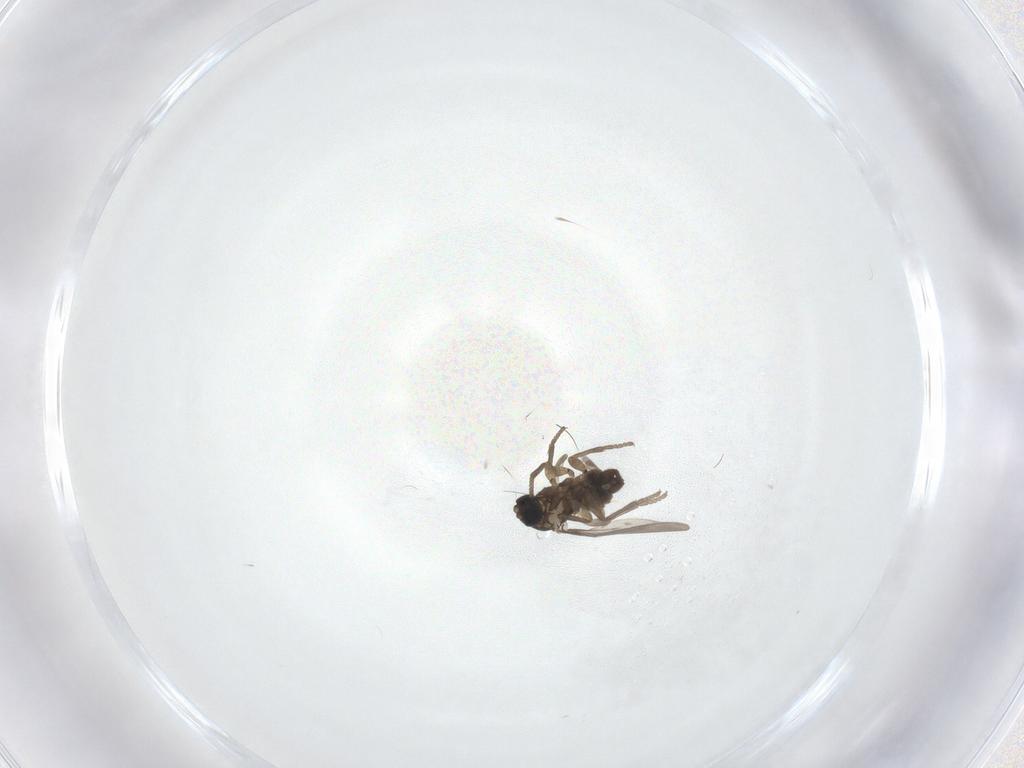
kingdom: Animalia
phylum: Arthropoda
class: Insecta
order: Diptera
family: Sciaridae
